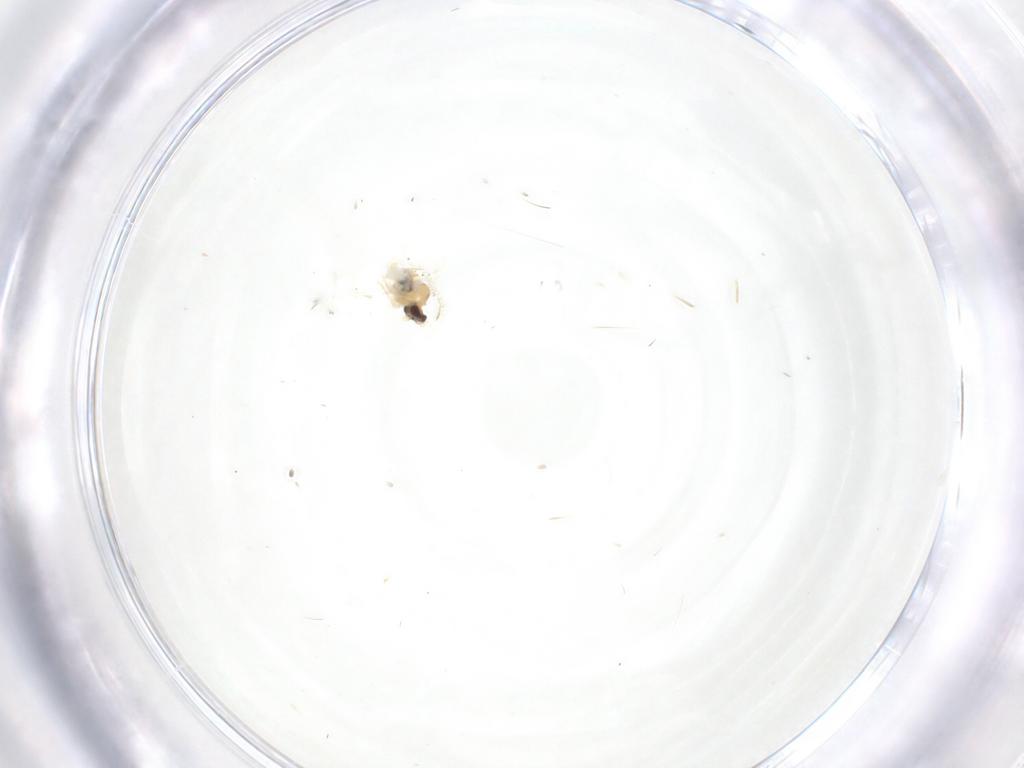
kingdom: Animalia
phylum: Arthropoda
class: Insecta
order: Diptera
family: Cecidomyiidae
